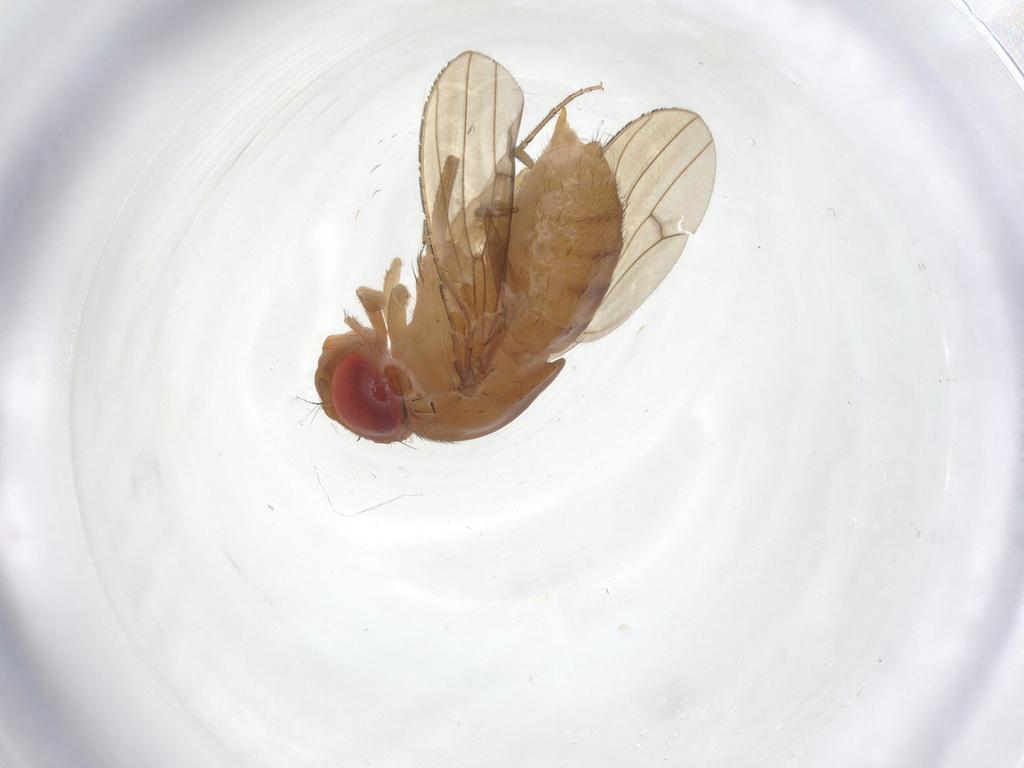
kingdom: Animalia
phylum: Arthropoda
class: Insecta
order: Diptera
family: Drosophilidae
